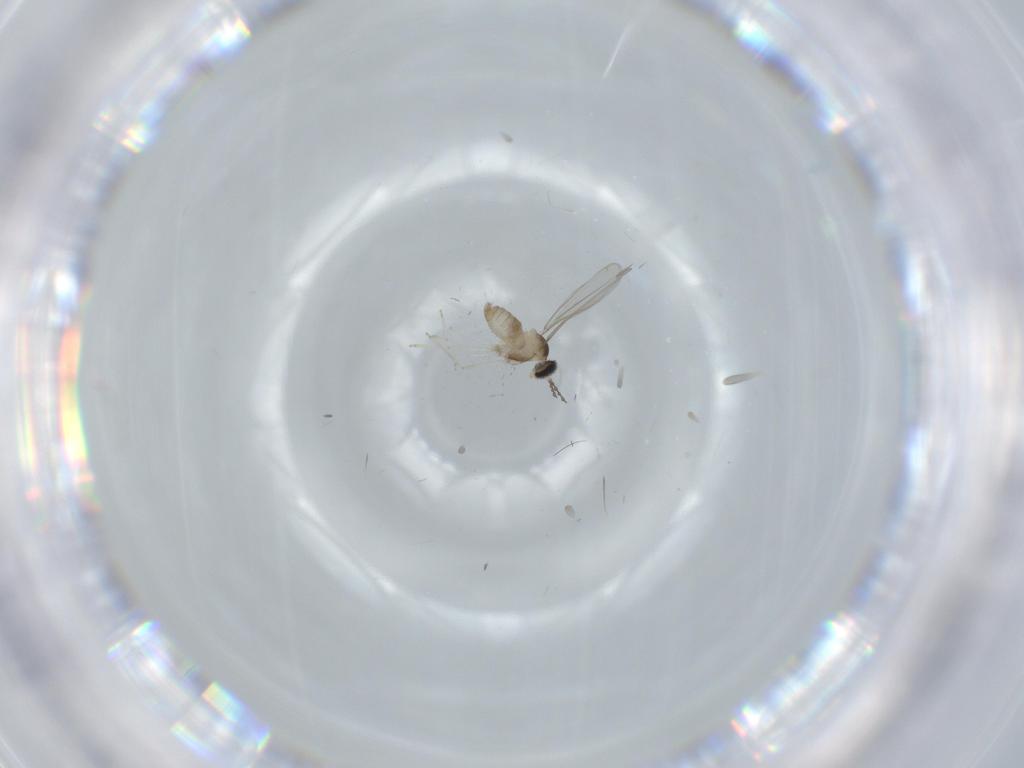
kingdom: Animalia
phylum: Arthropoda
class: Insecta
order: Diptera
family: Cecidomyiidae
